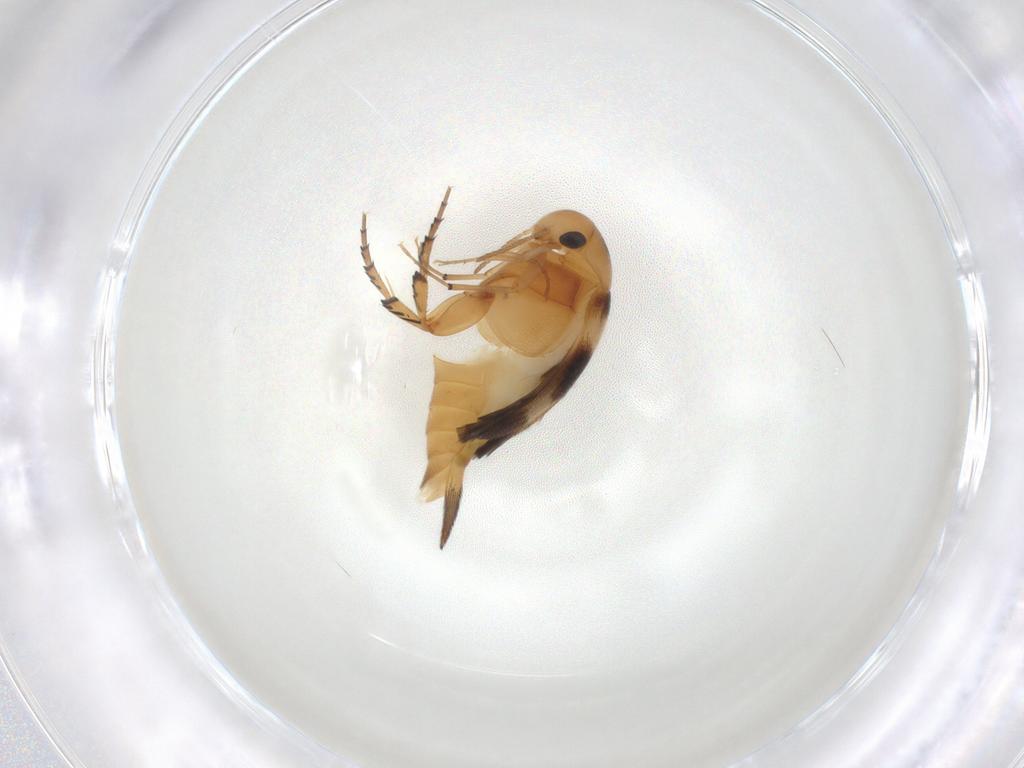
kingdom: Animalia
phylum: Arthropoda
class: Insecta
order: Coleoptera
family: Mordellidae
